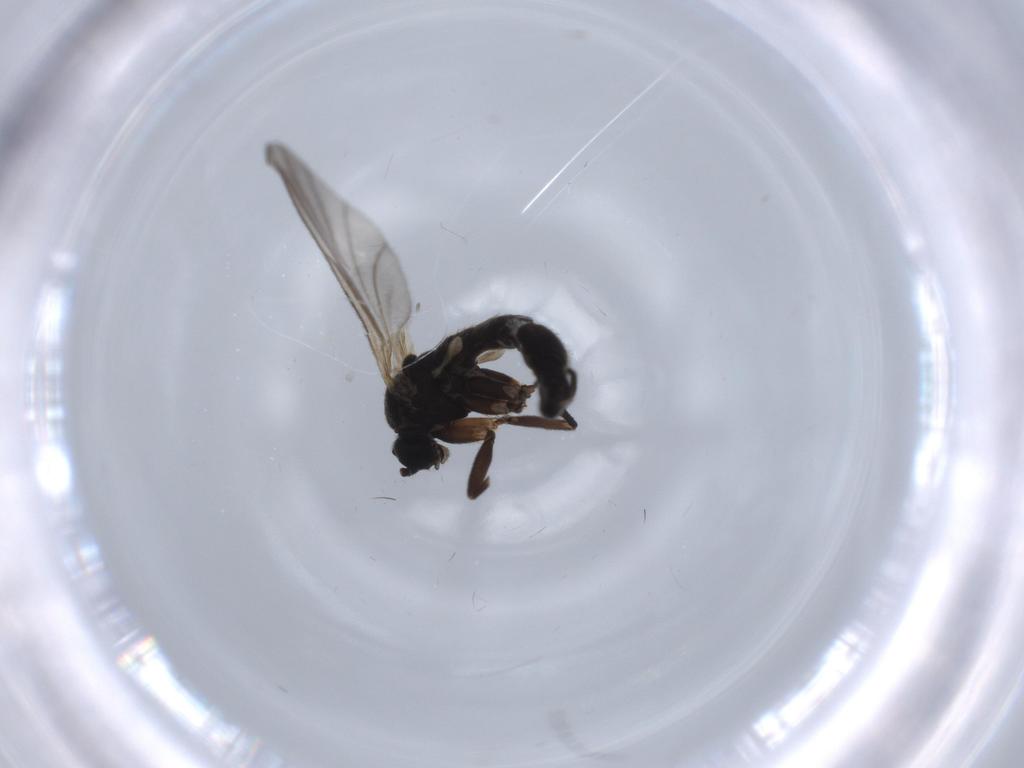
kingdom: Animalia
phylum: Arthropoda
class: Insecta
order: Diptera
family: Sciaridae
